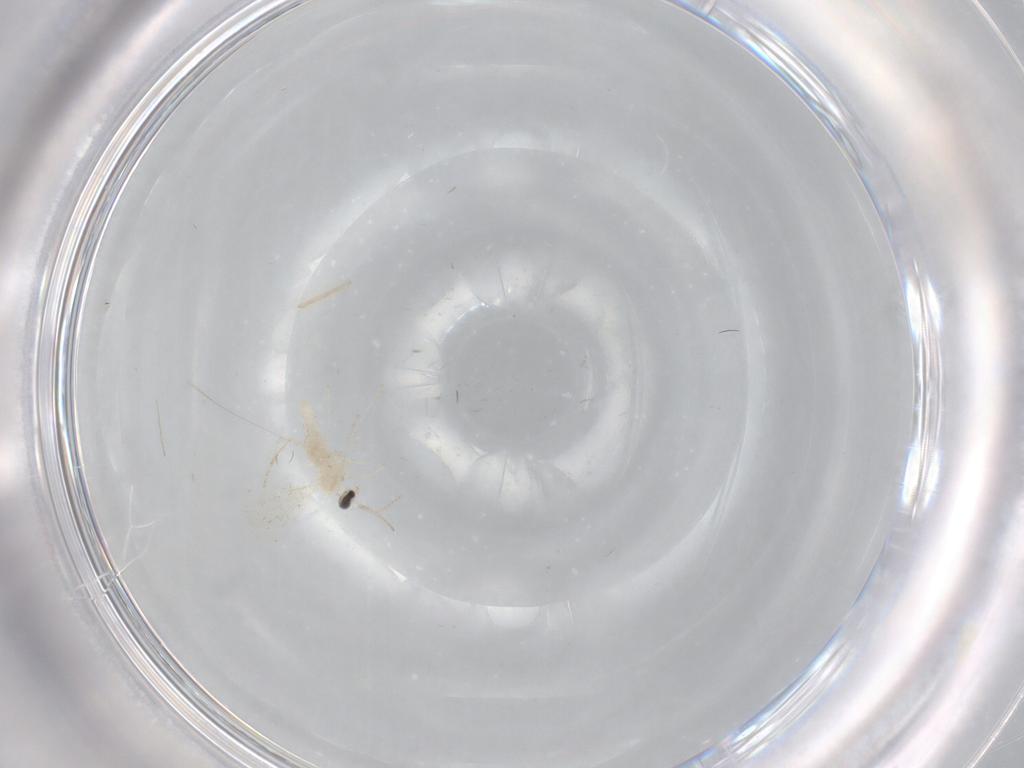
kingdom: Animalia
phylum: Arthropoda
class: Insecta
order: Diptera
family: Cecidomyiidae
